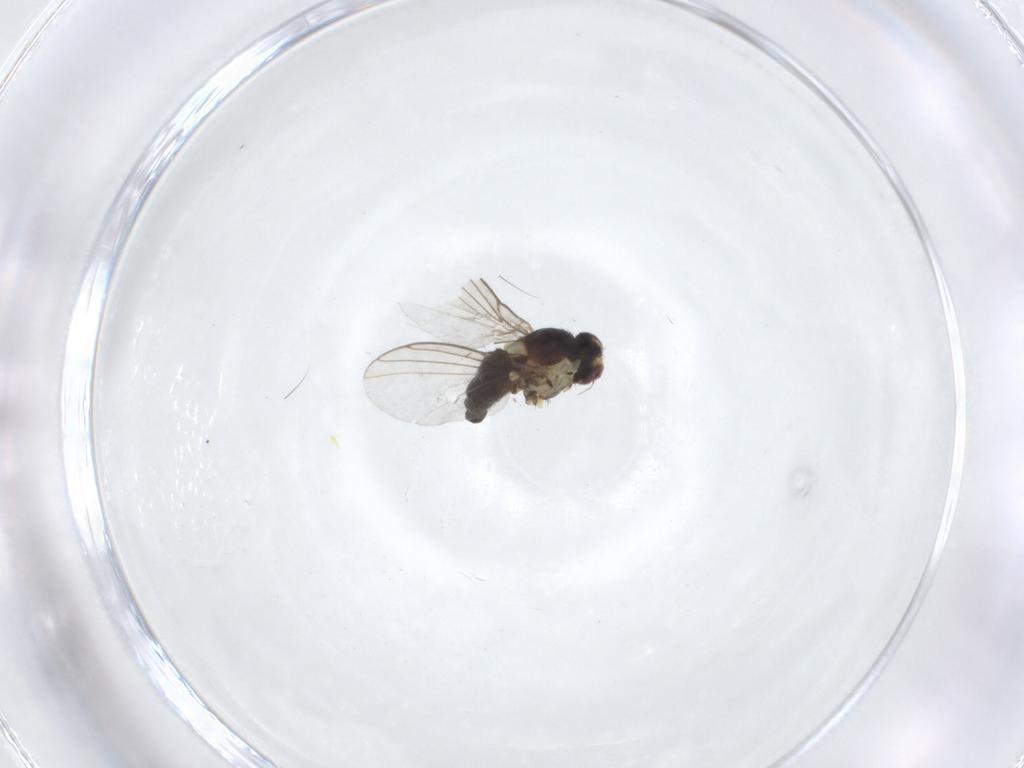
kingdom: Animalia
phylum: Arthropoda
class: Insecta
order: Diptera
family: Agromyzidae
